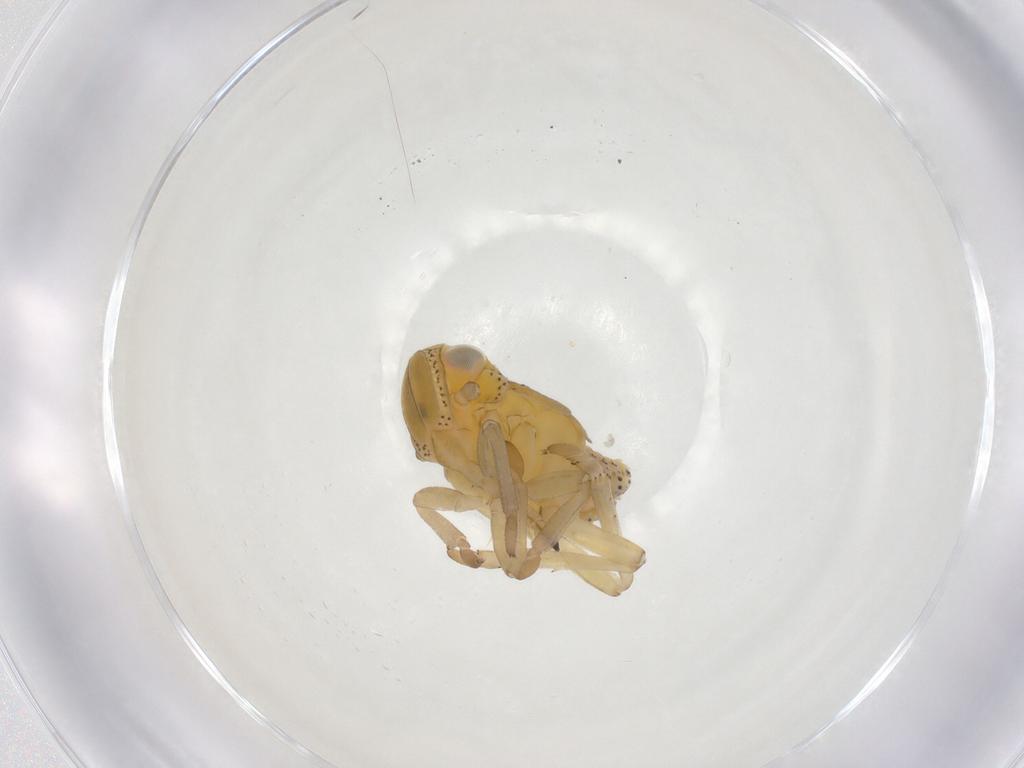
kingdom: Animalia
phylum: Arthropoda
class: Insecta
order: Hemiptera
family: Tropiduchidae
